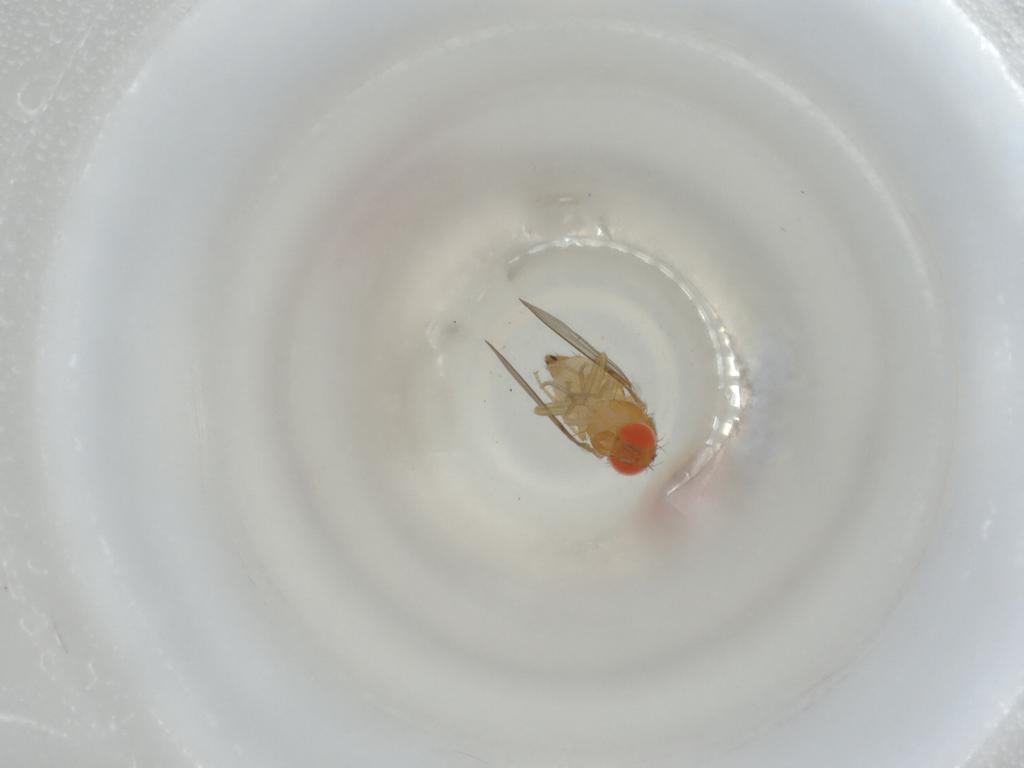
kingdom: Animalia
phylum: Arthropoda
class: Insecta
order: Diptera
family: Drosophilidae
